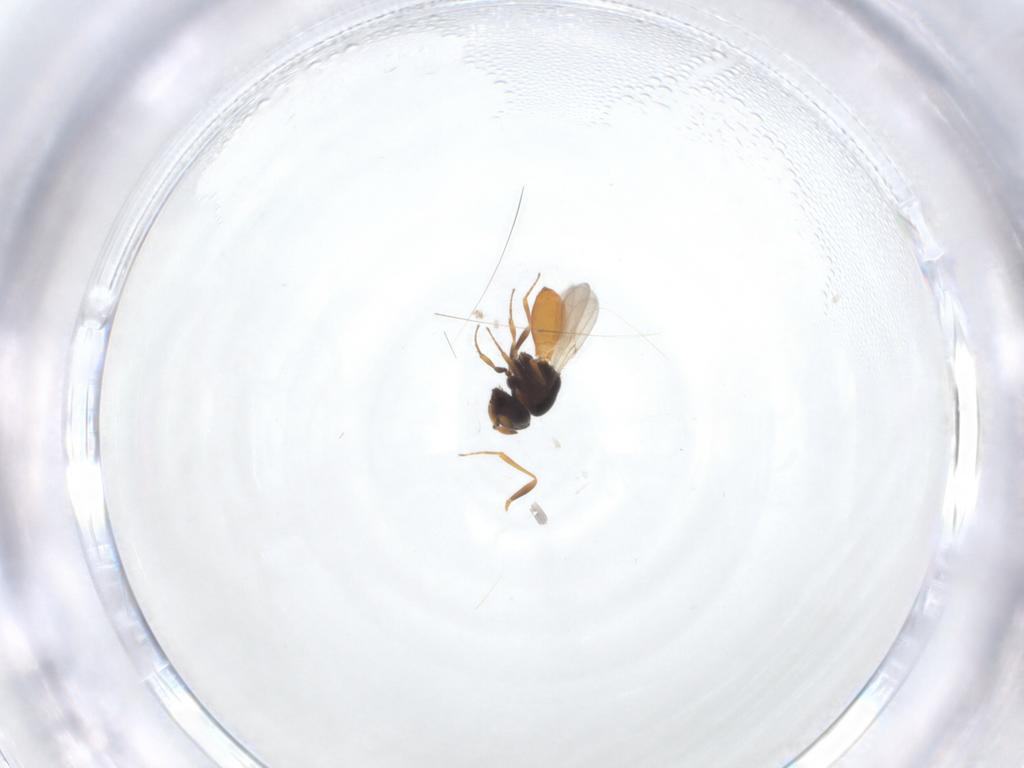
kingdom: Animalia
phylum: Arthropoda
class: Insecta
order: Hymenoptera
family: Scelionidae
